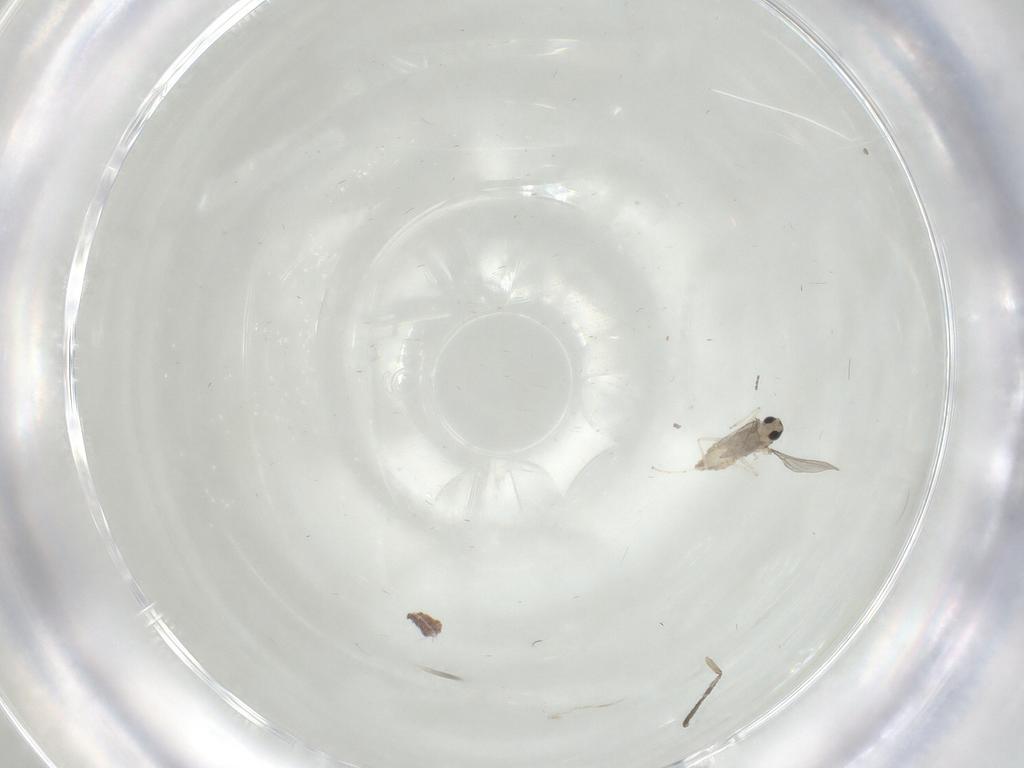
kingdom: Animalia
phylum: Arthropoda
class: Insecta
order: Diptera
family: Cecidomyiidae
